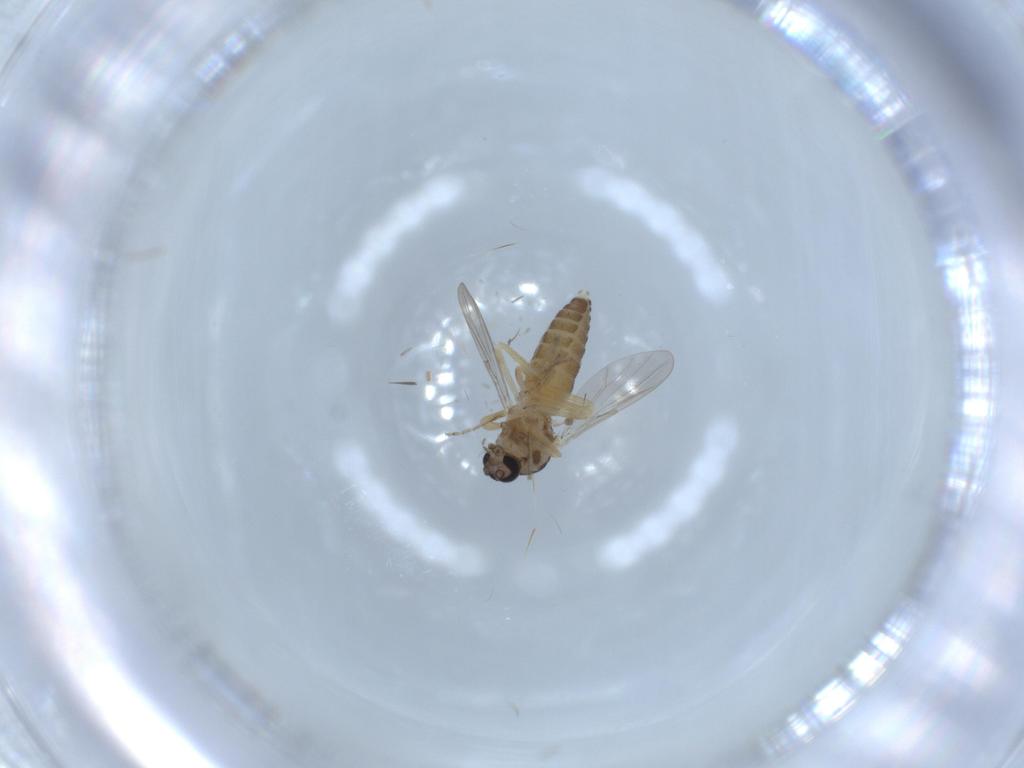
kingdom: Animalia
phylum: Arthropoda
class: Insecta
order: Diptera
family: Ceratopogonidae
